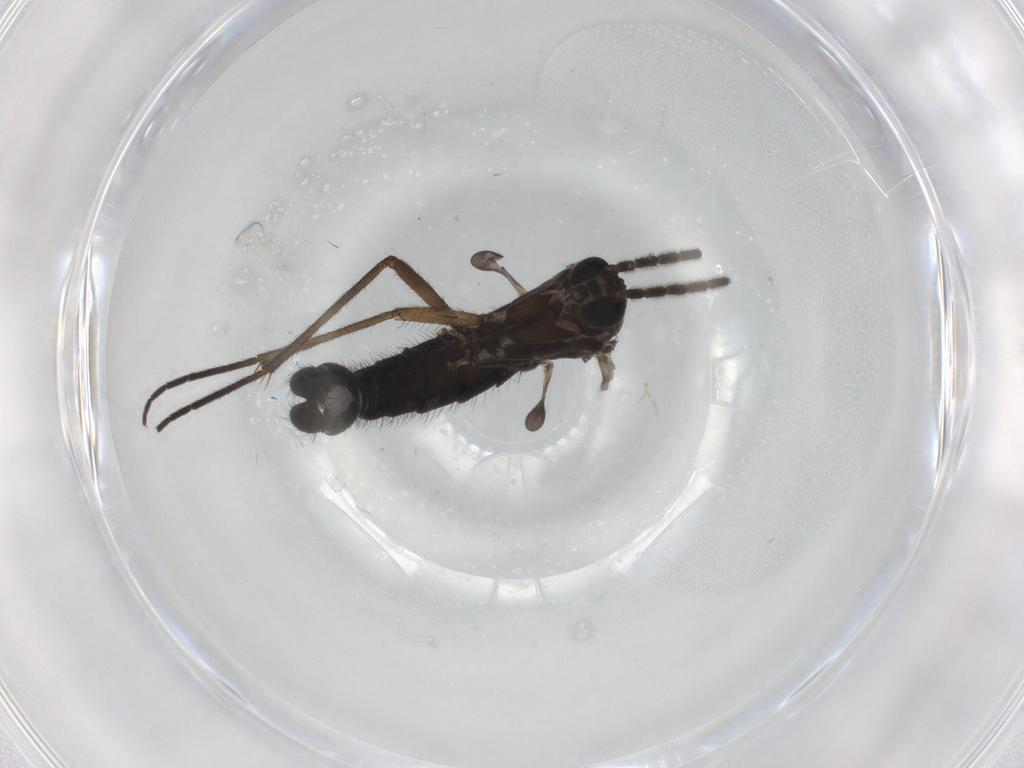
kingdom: Animalia
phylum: Arthropoda
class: Insecta
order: Diptera
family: Sciaridae
